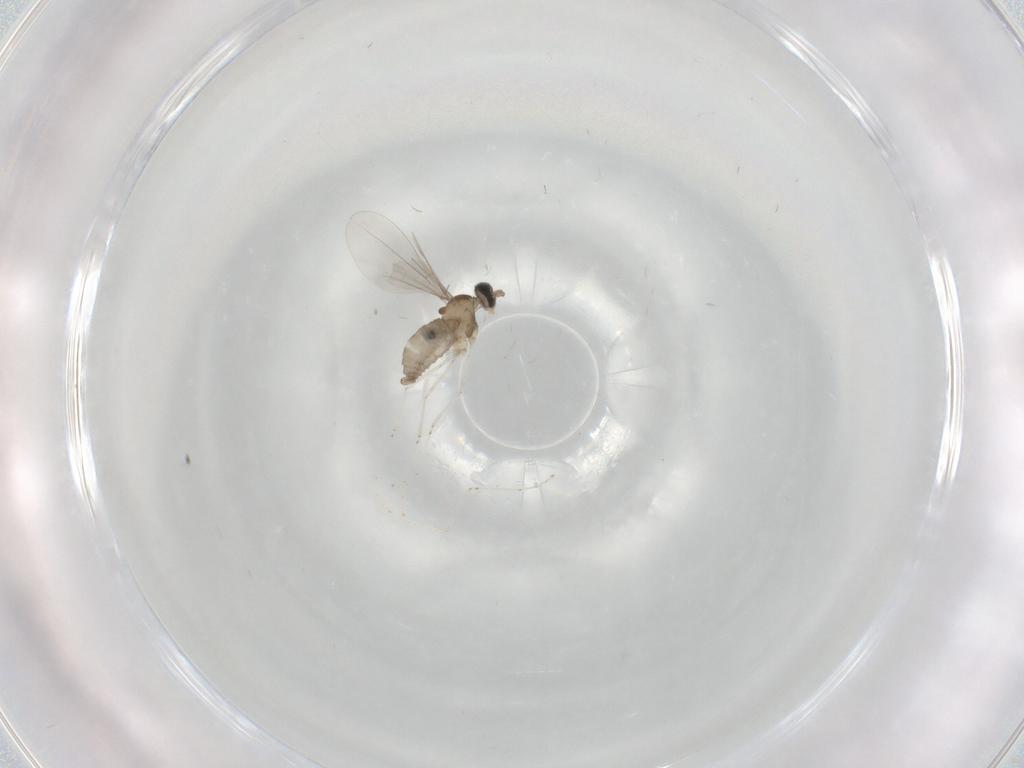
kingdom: Animalia
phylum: Arthropoda
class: Insecta
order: Diptera
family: Cecidomyiidae
